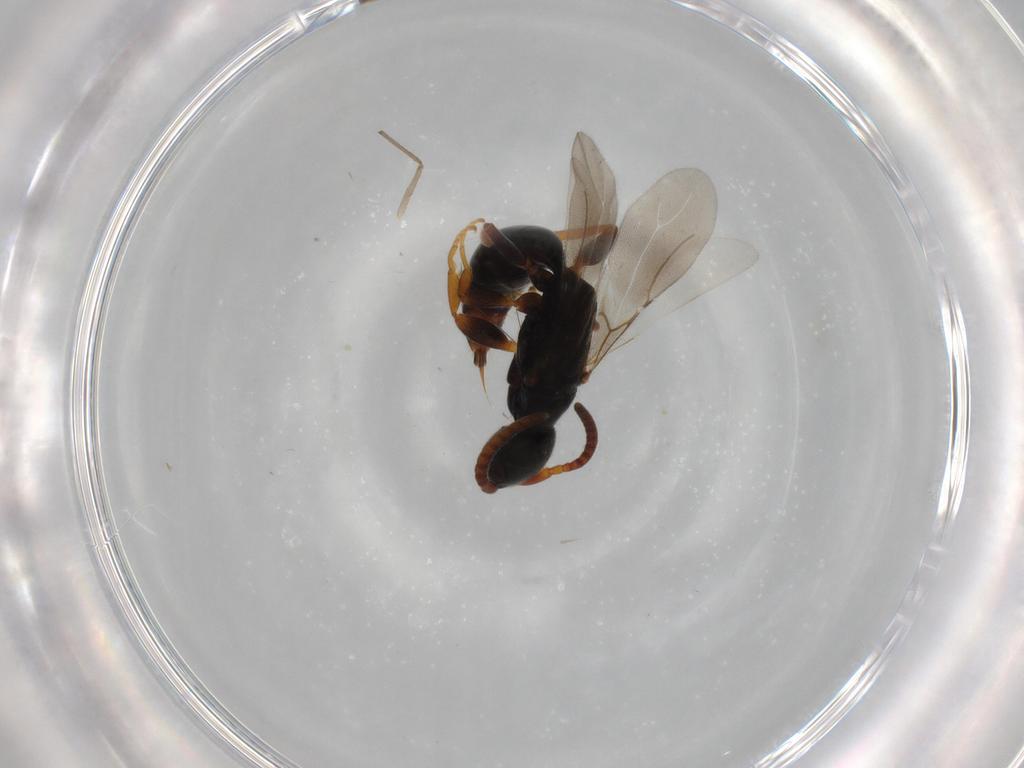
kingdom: Animalia
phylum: Arthropoda
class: Insecta
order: Hymenoptera
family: Bethylidae
